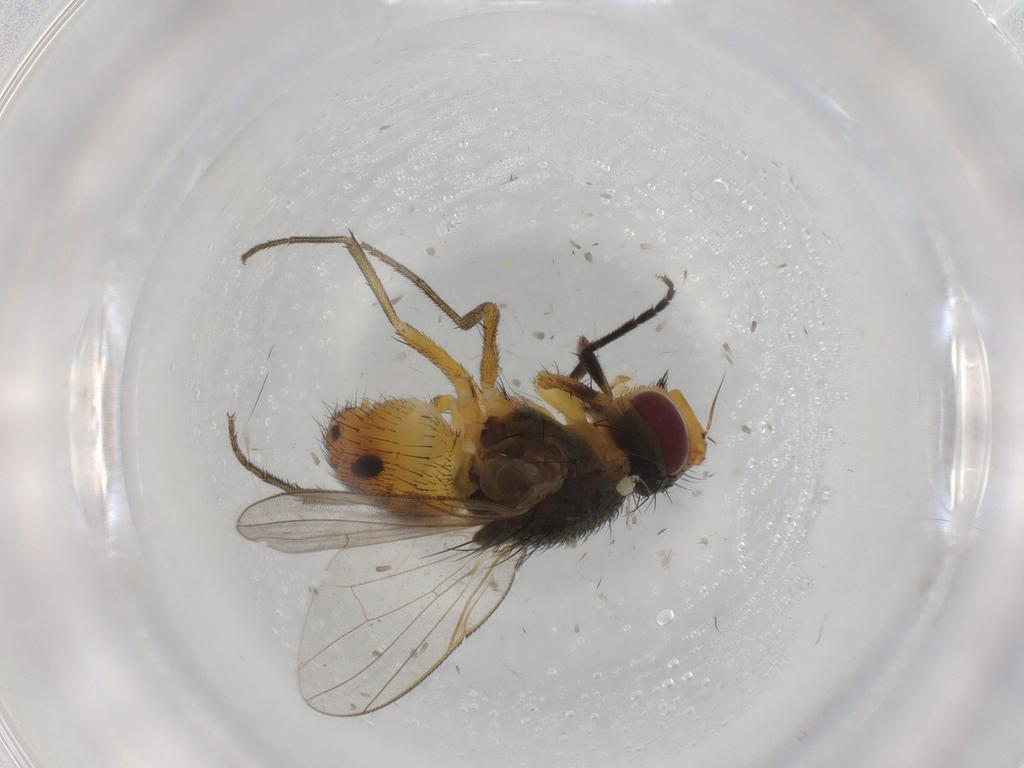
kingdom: Animalia
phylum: Arthropoda
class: Insecta
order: Diptera
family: Muscidae
